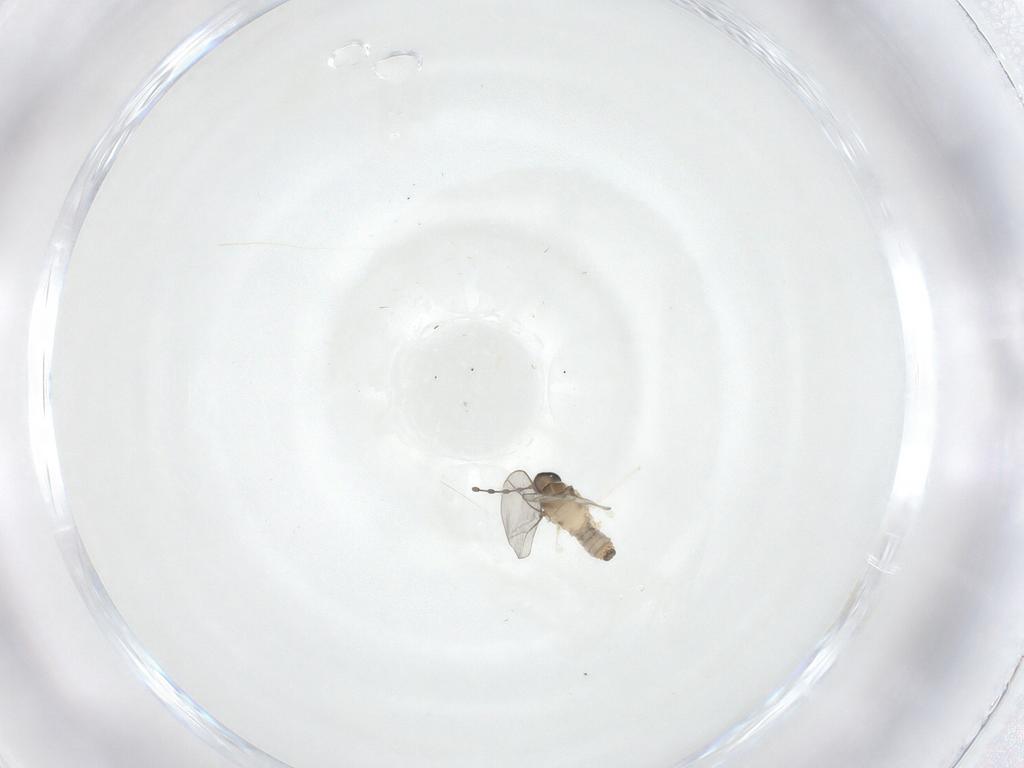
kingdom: Animalia
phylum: Arthropoda
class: Insecta
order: Diptera
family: Cecidomyiidae
